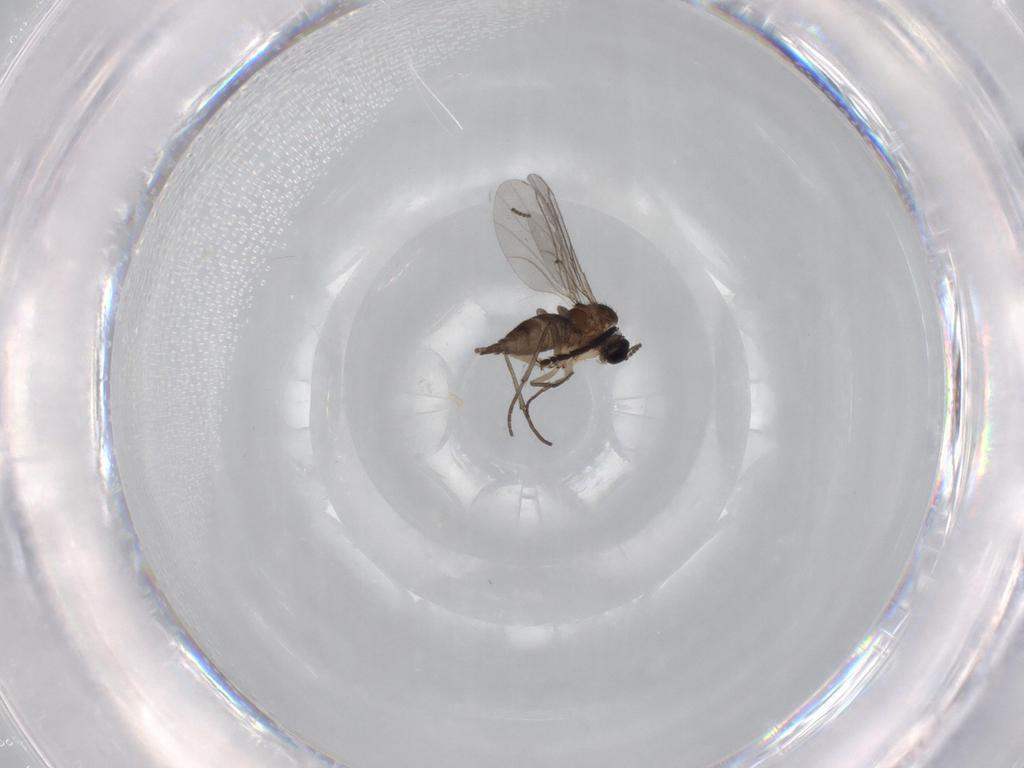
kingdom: Animalia
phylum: Arthropoda
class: Insecta
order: Diptera
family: Sciaridae
